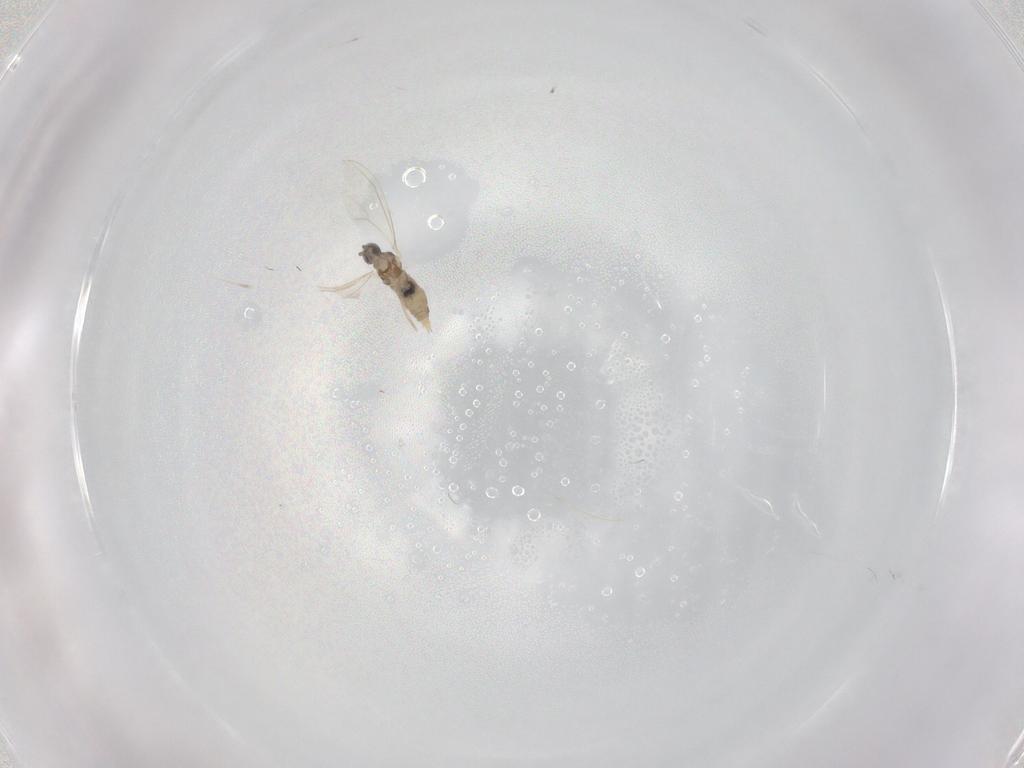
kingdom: Animalia
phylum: Arthropoda
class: Insecta
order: Diptera
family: Cecidomyiidae
